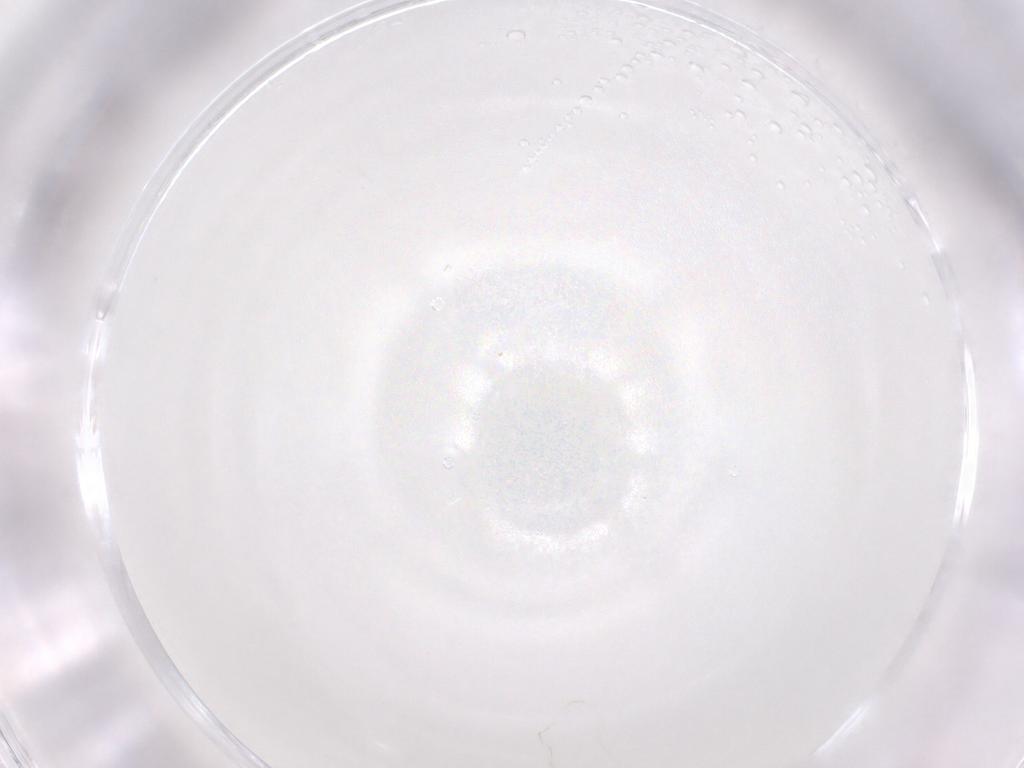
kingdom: Animalia
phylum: Arthropoda
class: Insecta
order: Diptera
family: Cecidomyiidae
